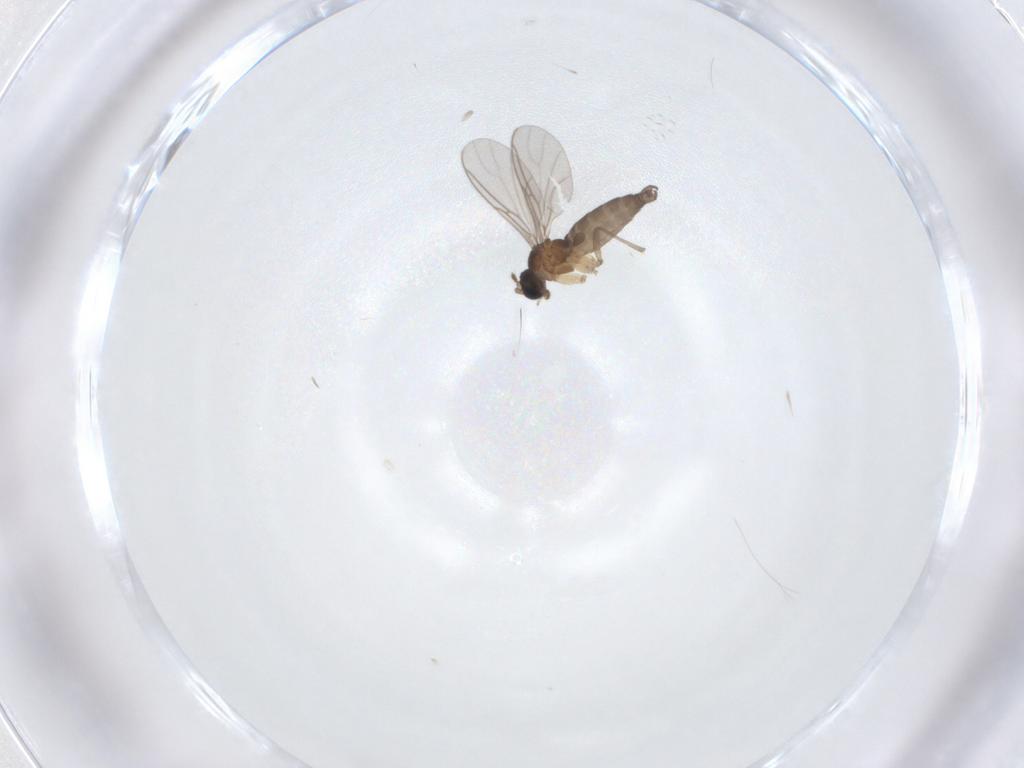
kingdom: Animalia
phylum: Arthropoda
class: Insecta
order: Diptera
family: Sciaridae
